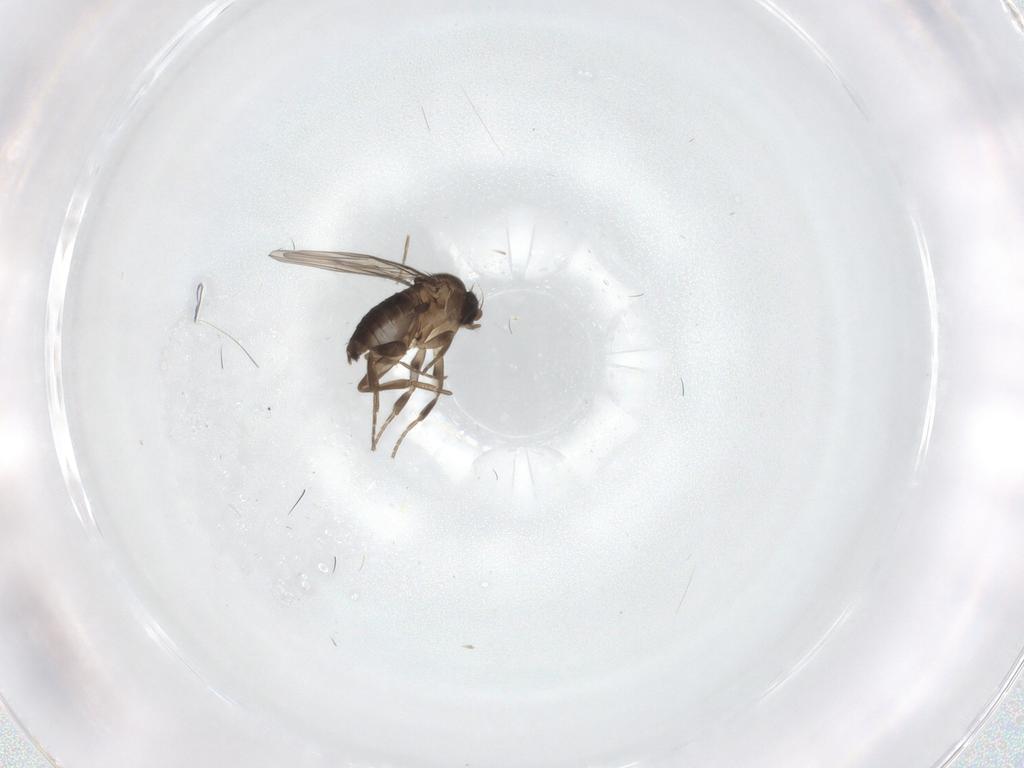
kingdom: Animalia
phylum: Arthropoda
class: Insecta
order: Diptera
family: Phoridae
